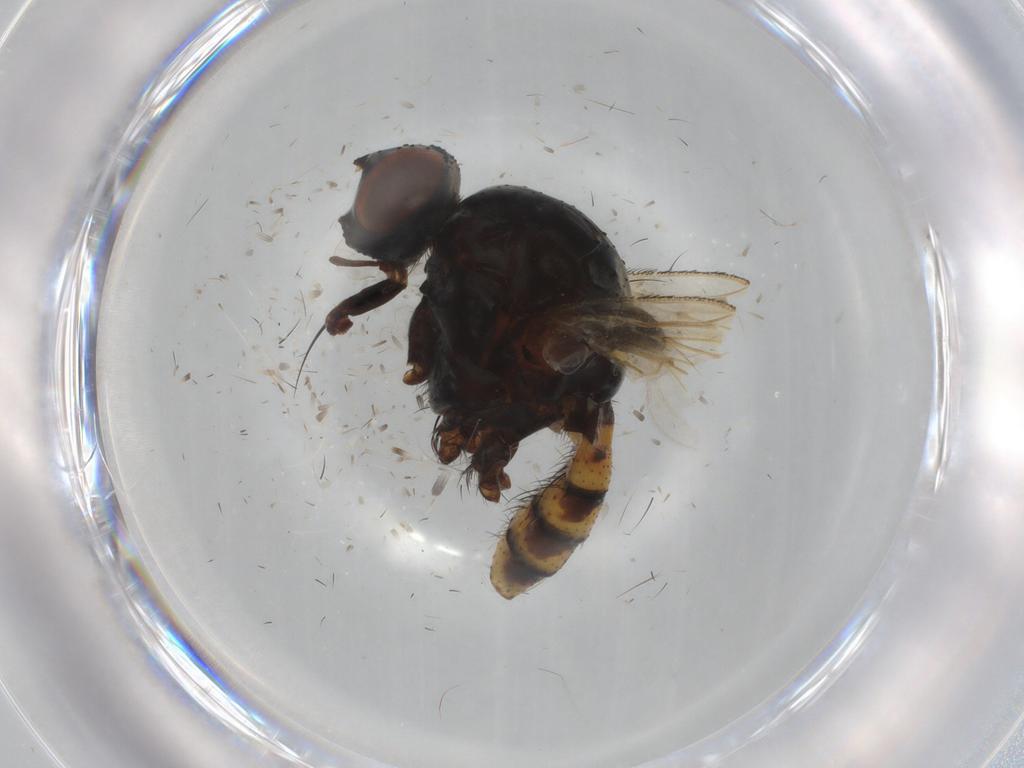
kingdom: Animalia
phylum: Arthropoda
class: Insecta
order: Diptera
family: Anthomyiidae
